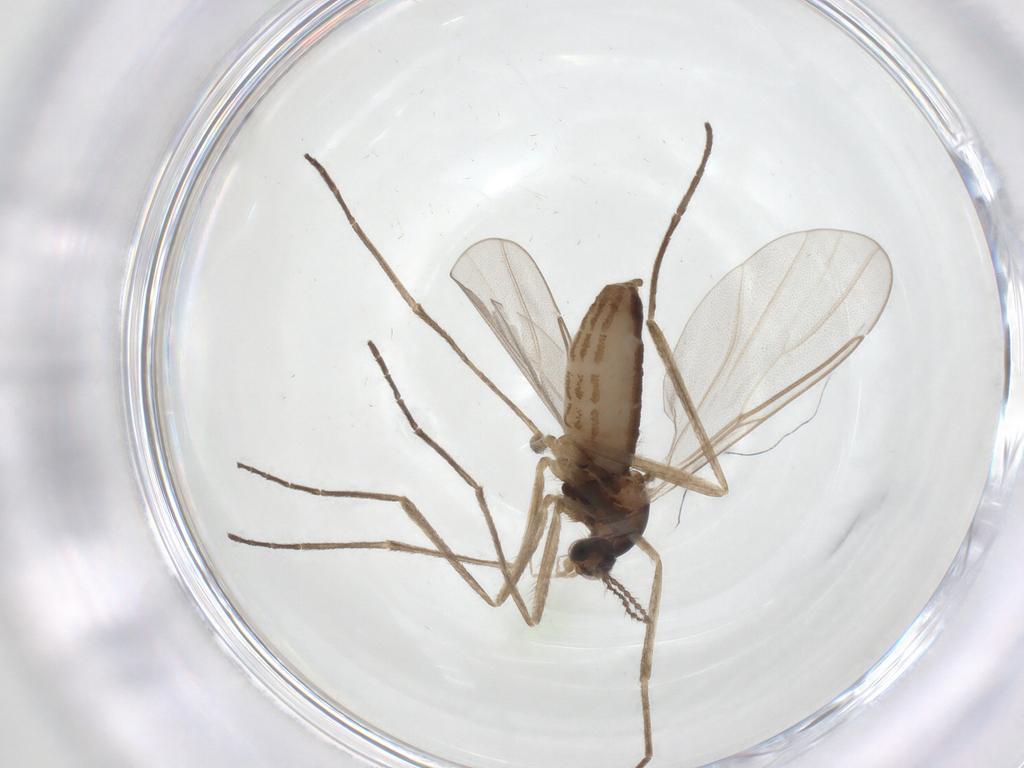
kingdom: Animalia
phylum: Arthropoda
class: Insecta
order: Diptera
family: Cecidomyiidae
